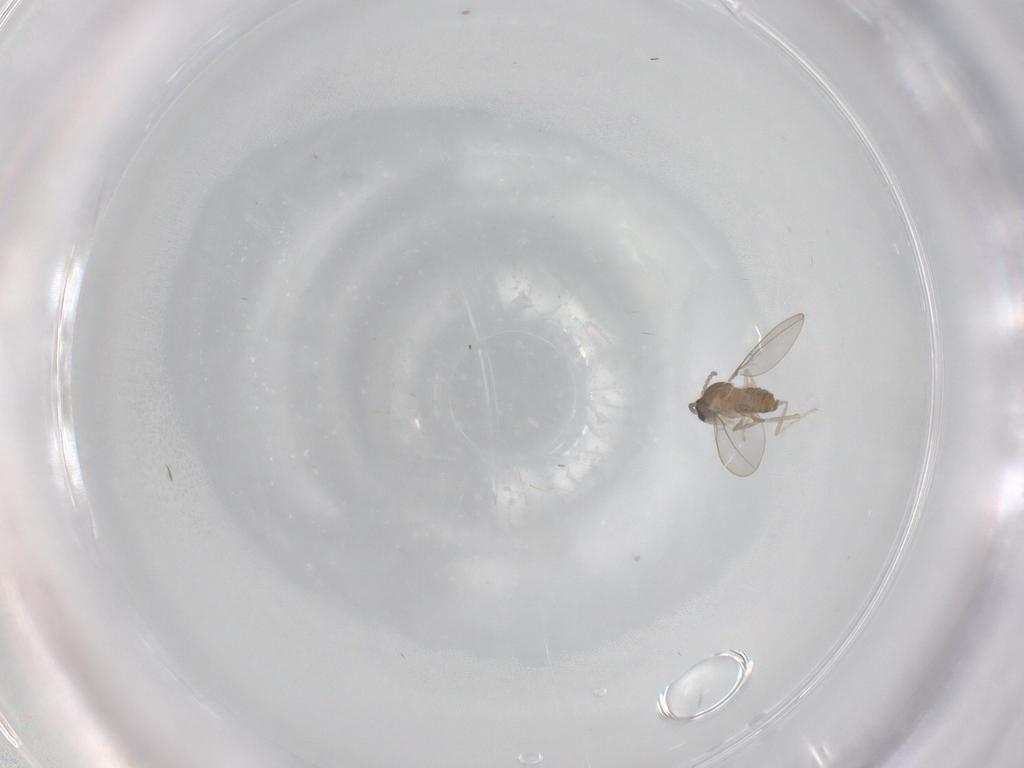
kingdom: Animalia
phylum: Arthropoda
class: Insecta
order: Diptera
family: Cecidomyiidae
